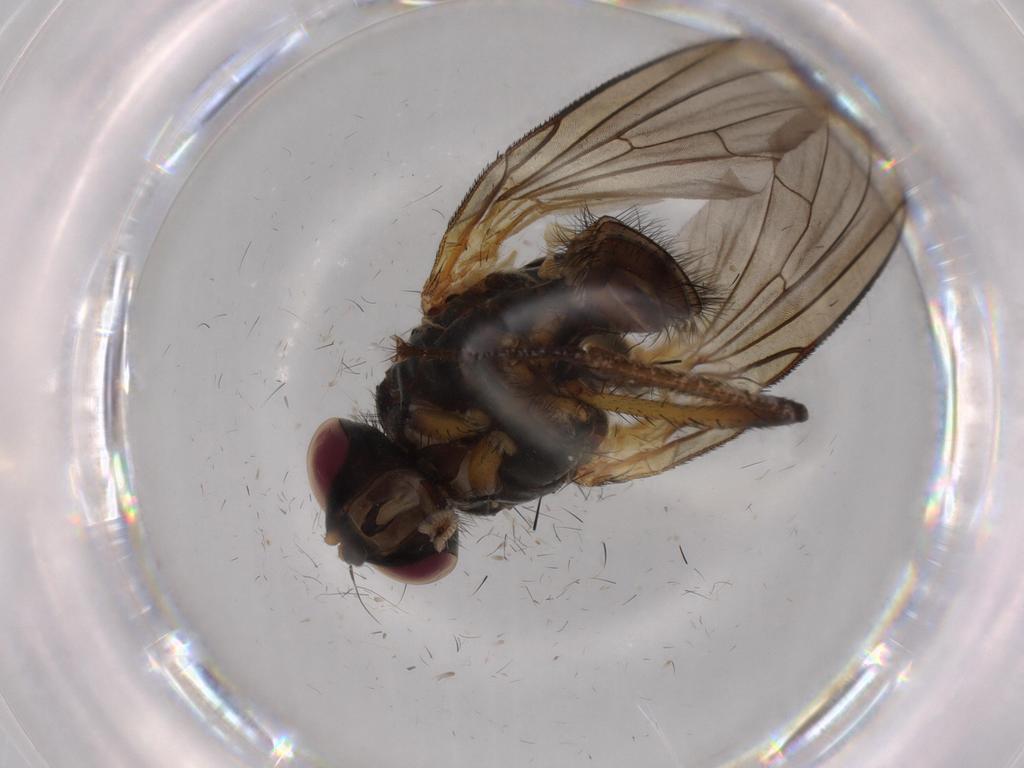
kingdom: Animalia
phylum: Arthropoda
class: Insecta
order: Diptera
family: Anthomyiidae
